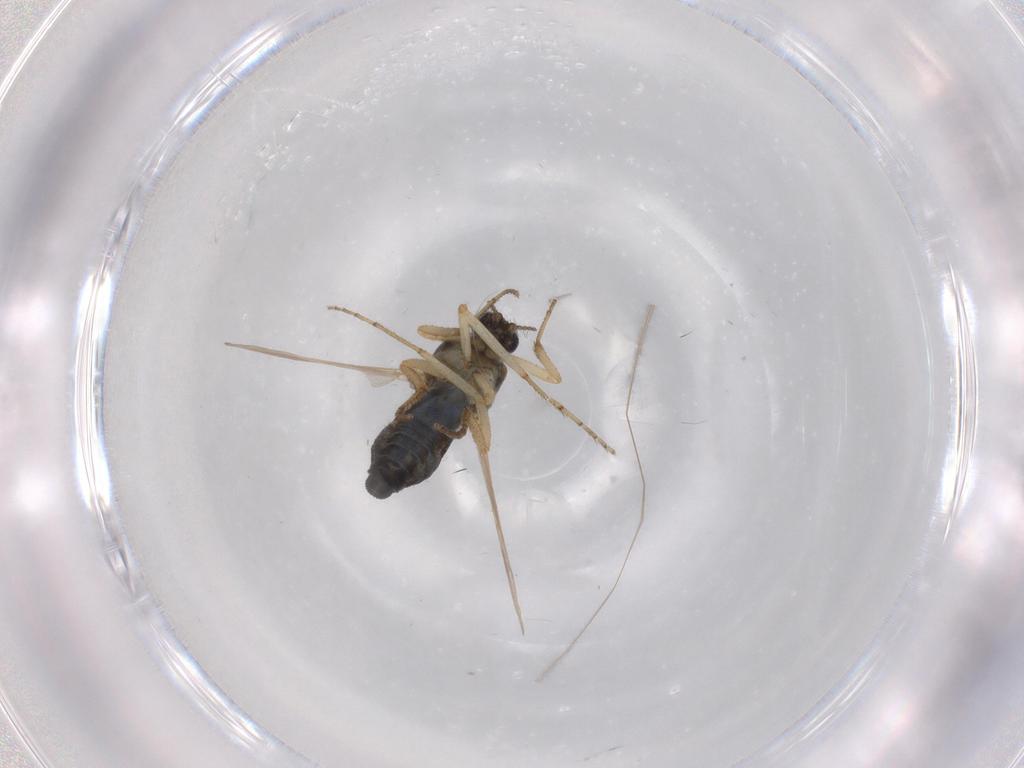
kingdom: Animalia
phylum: Arthropoda
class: Insecta
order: Diptera
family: Ceratopogonidae
